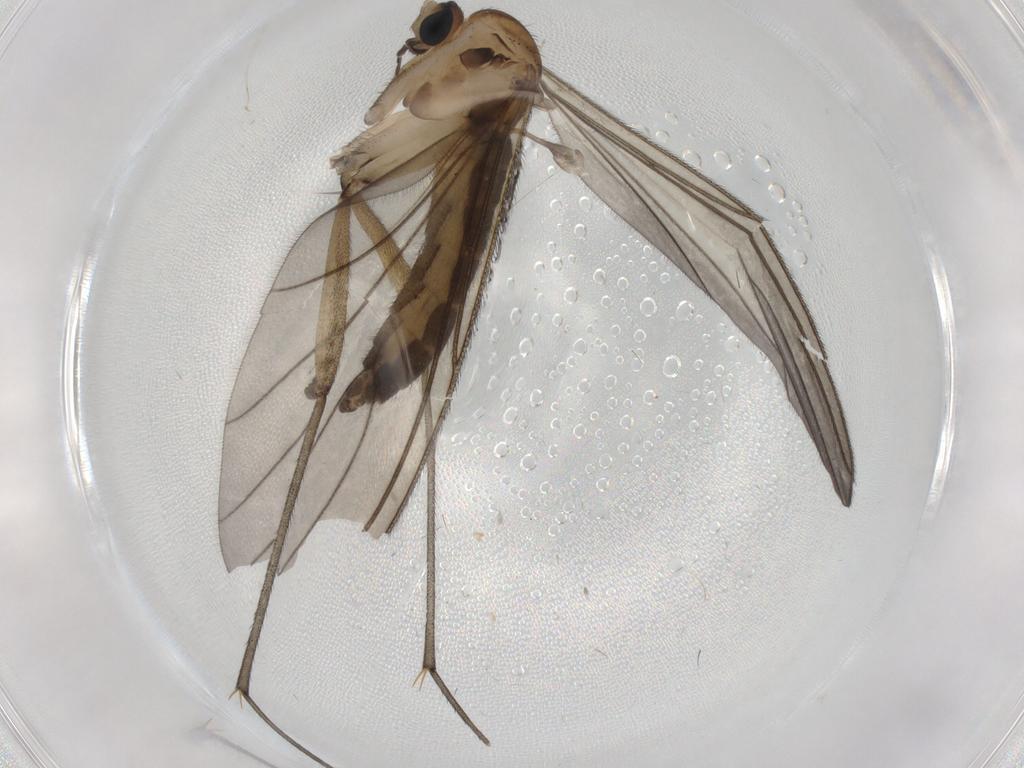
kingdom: Animalia
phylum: Arthropoda
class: Insecta
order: Diptera
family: Sciaridae
